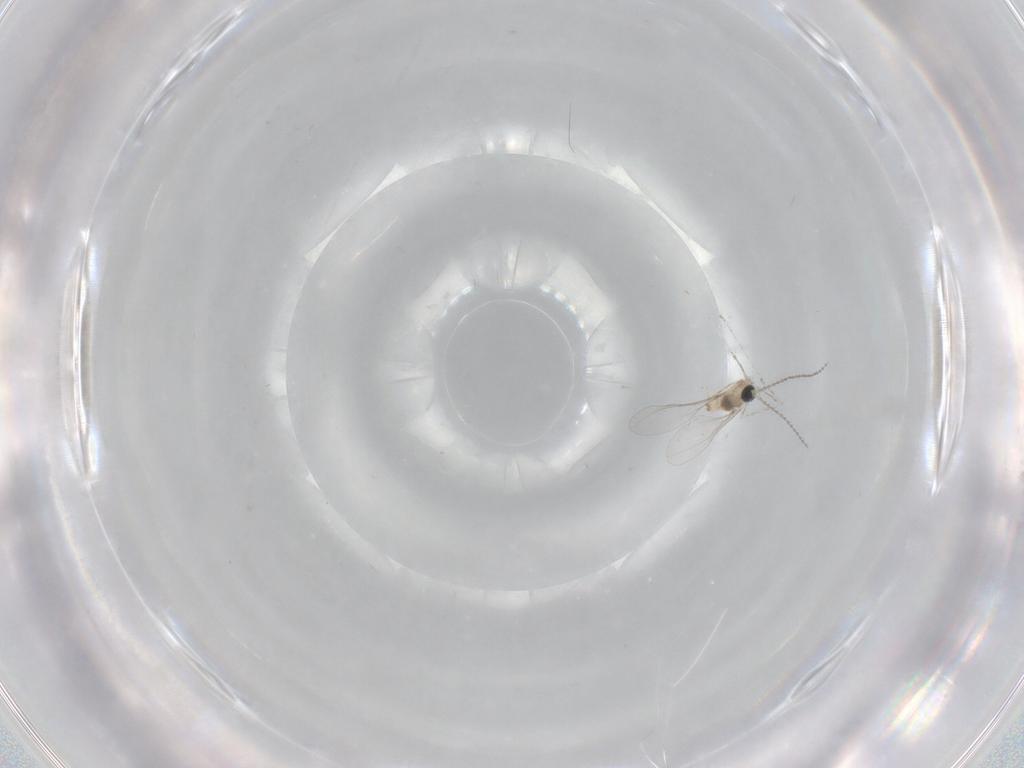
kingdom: Animalia
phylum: Arthropoda
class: Insecta
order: Diptera
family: Cecidomyiidae
